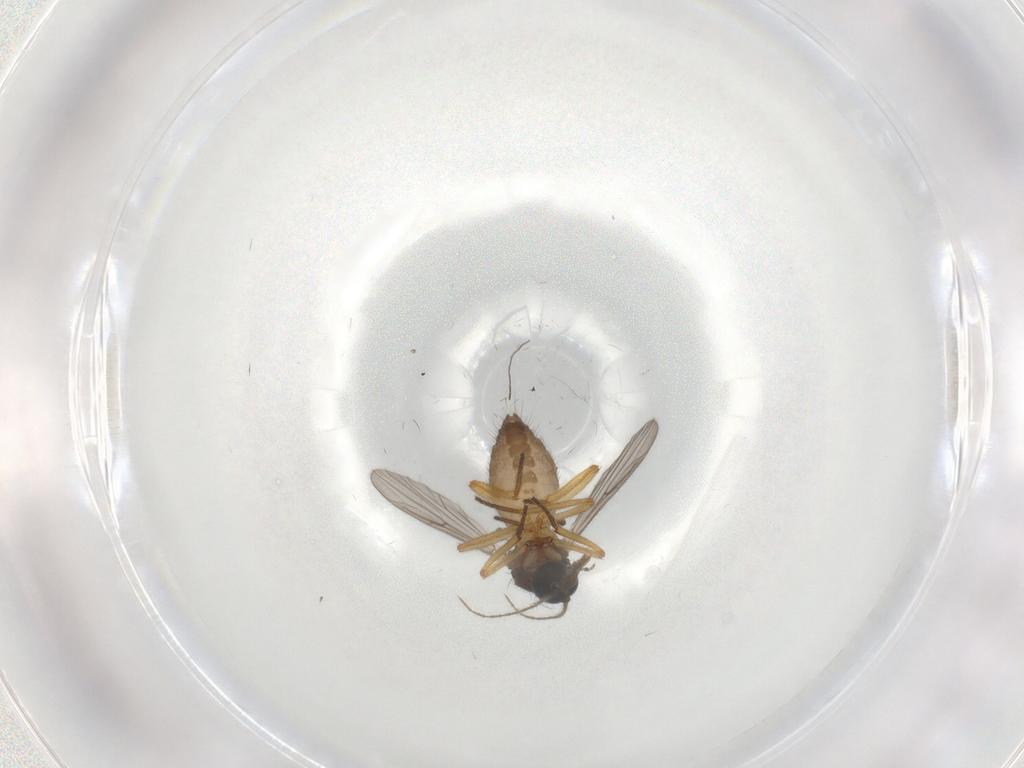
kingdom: Animalia
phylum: Arthropoda
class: Insecta
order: Diptera
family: Ceratopogonidae
